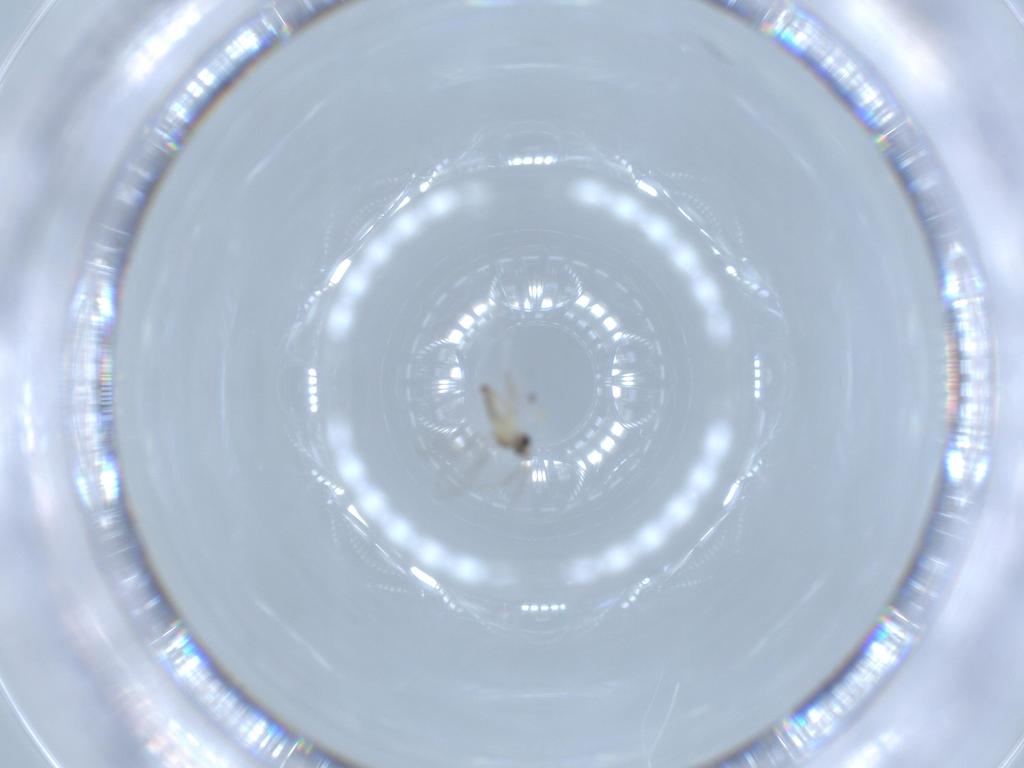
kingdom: Animalia
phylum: Arthropoda
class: Insecta
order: Diptera
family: Cecidomyiidae
